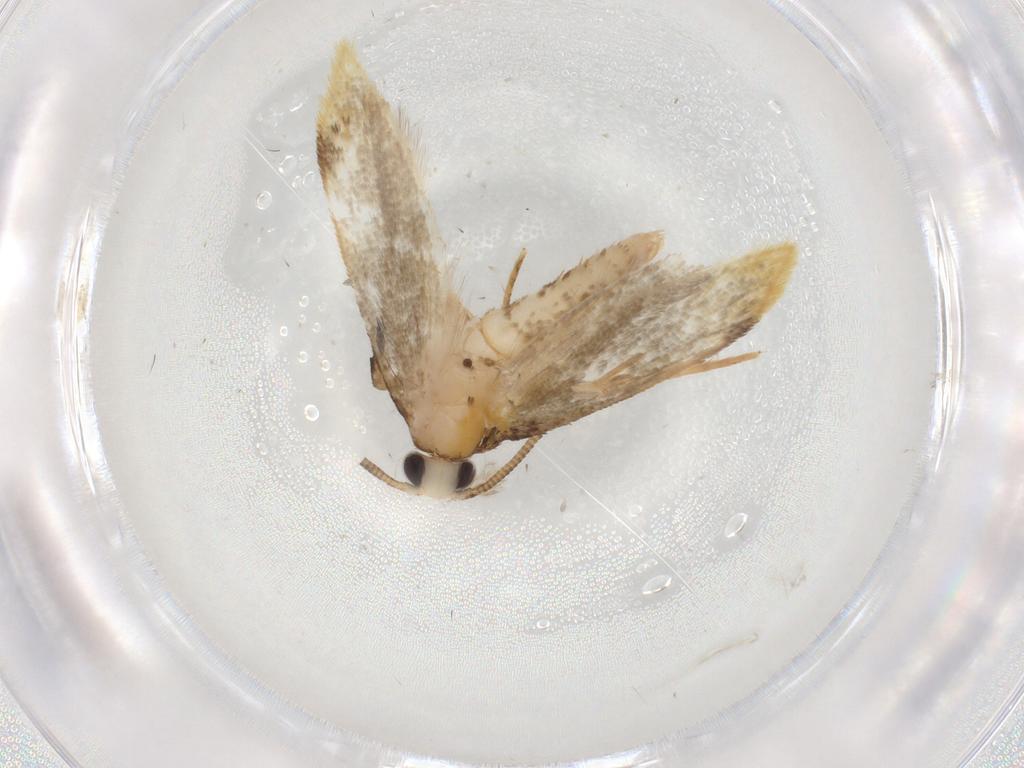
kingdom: Animalia
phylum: Arthropoda
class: Insecta
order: Lepidoptera
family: Tineidae
